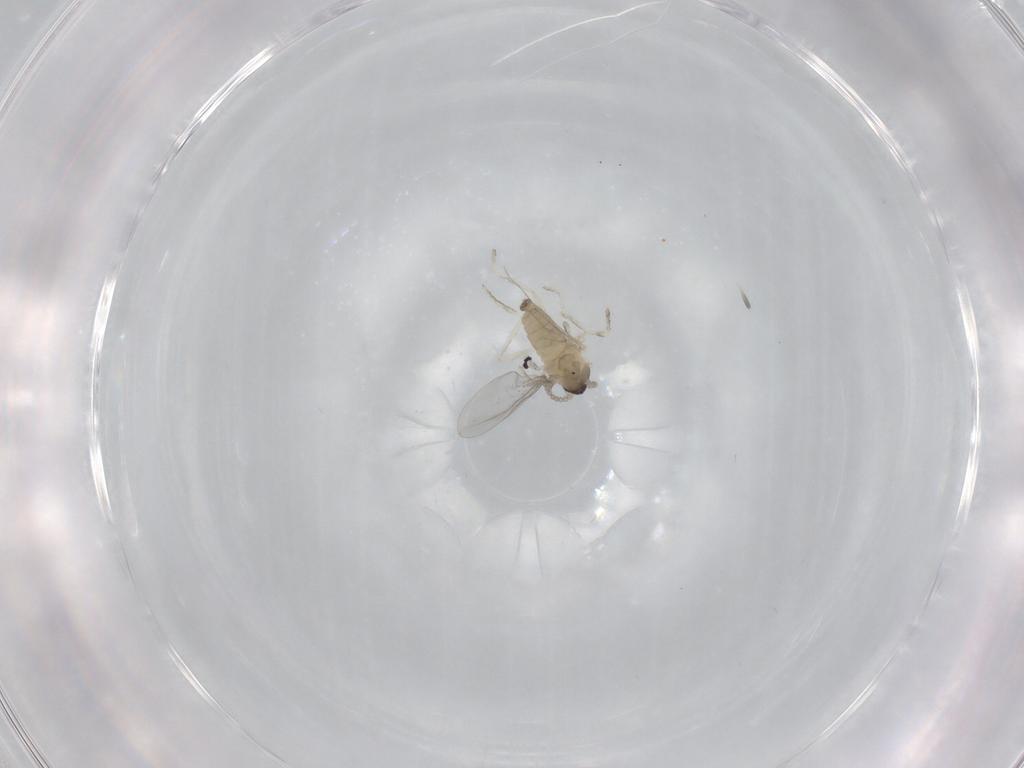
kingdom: Animalia
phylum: Arthropoda
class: Insecta
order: Diptera
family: Cecidomyiidae
